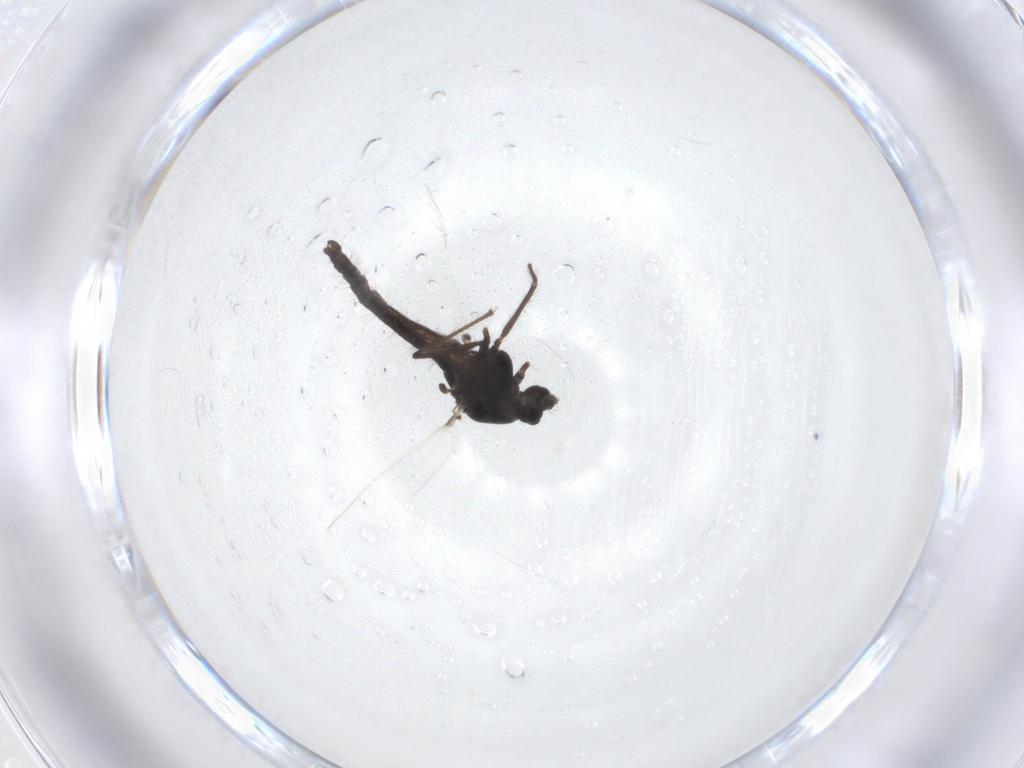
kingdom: Animalia
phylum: Arthropoda
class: Insecta
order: Diptera
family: Chironomidae
